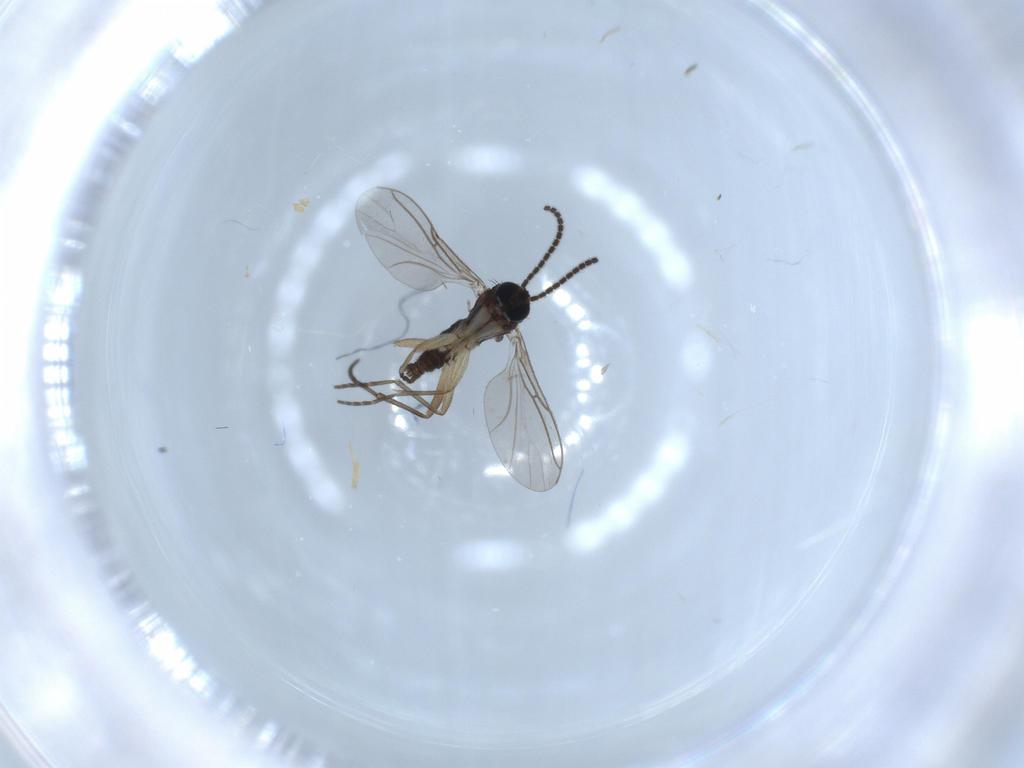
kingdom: Animalia
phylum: Arthropoda
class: Insecta
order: Diptera
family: Sciaridae
